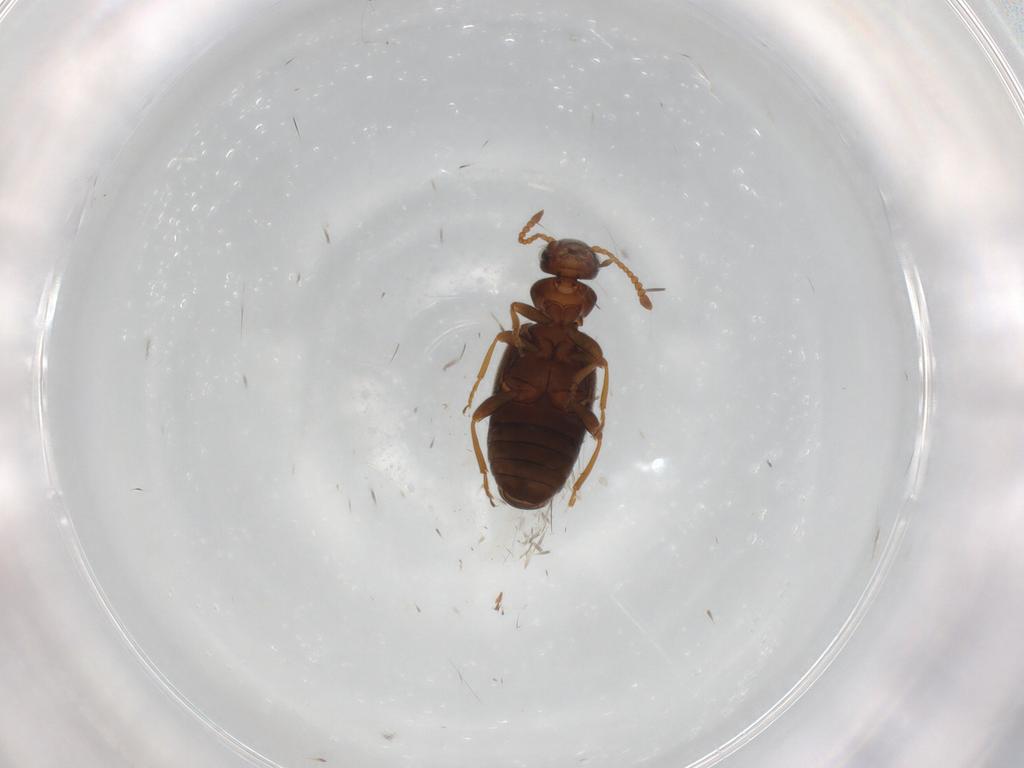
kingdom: Animalia
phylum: Arthropoda
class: Insecta
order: Coleoptera
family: Anthicidae
